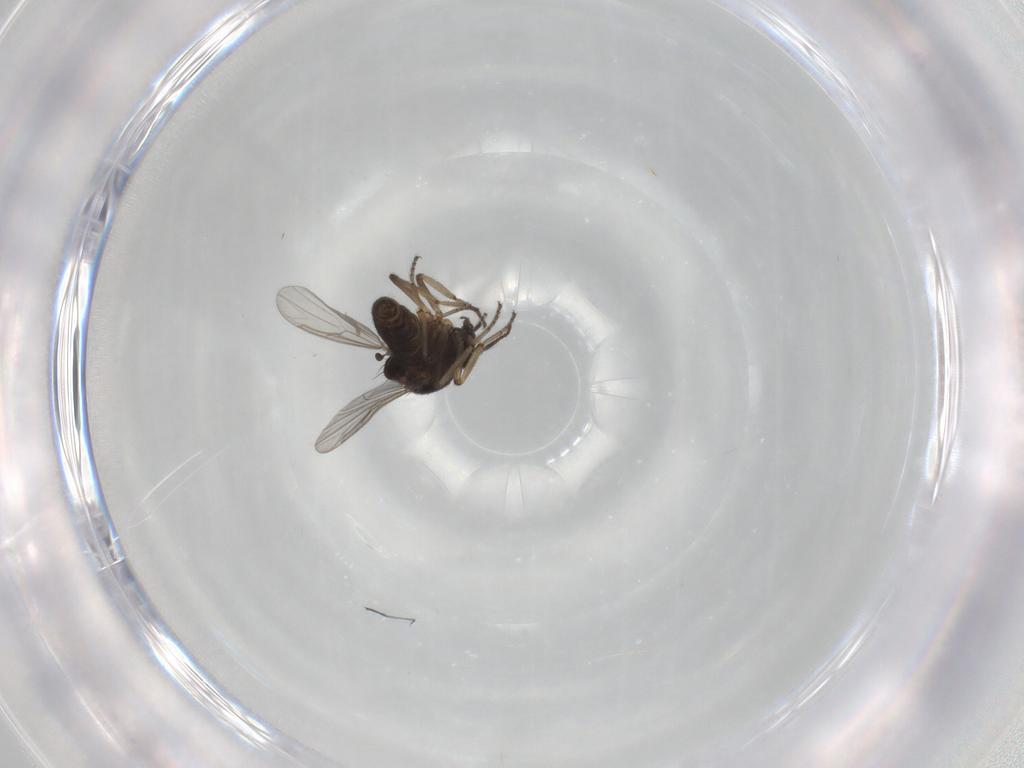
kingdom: Animalia
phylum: Arthropoda
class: Insecta
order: Diptera
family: Ceratopogonidae
